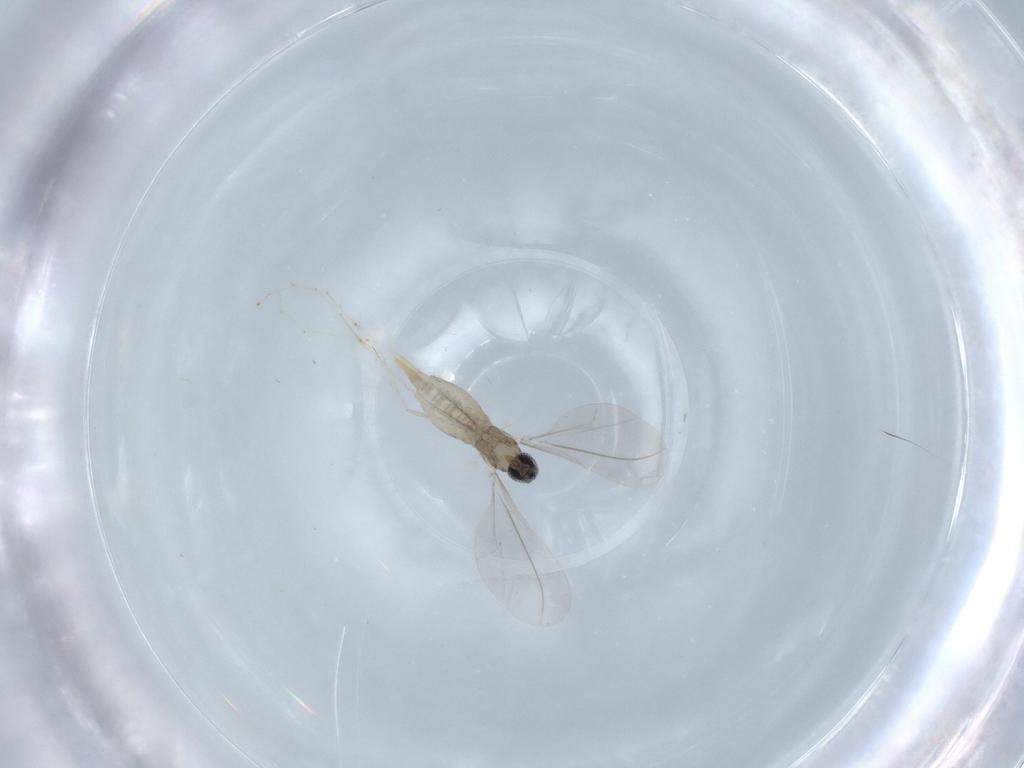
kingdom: Animalia
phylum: Arthropoda
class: Insecta
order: Diptera
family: Cecidomyiidae
